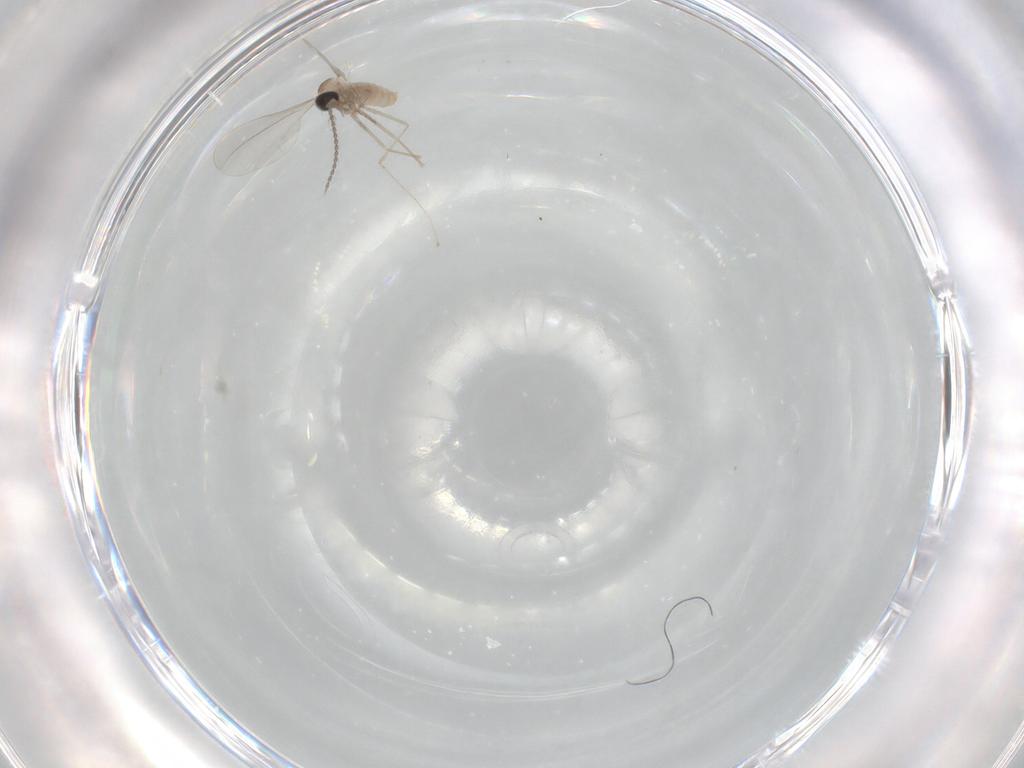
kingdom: Animalia
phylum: Arthropoda
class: Insecta
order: Diptera
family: Cecidomyiidae
